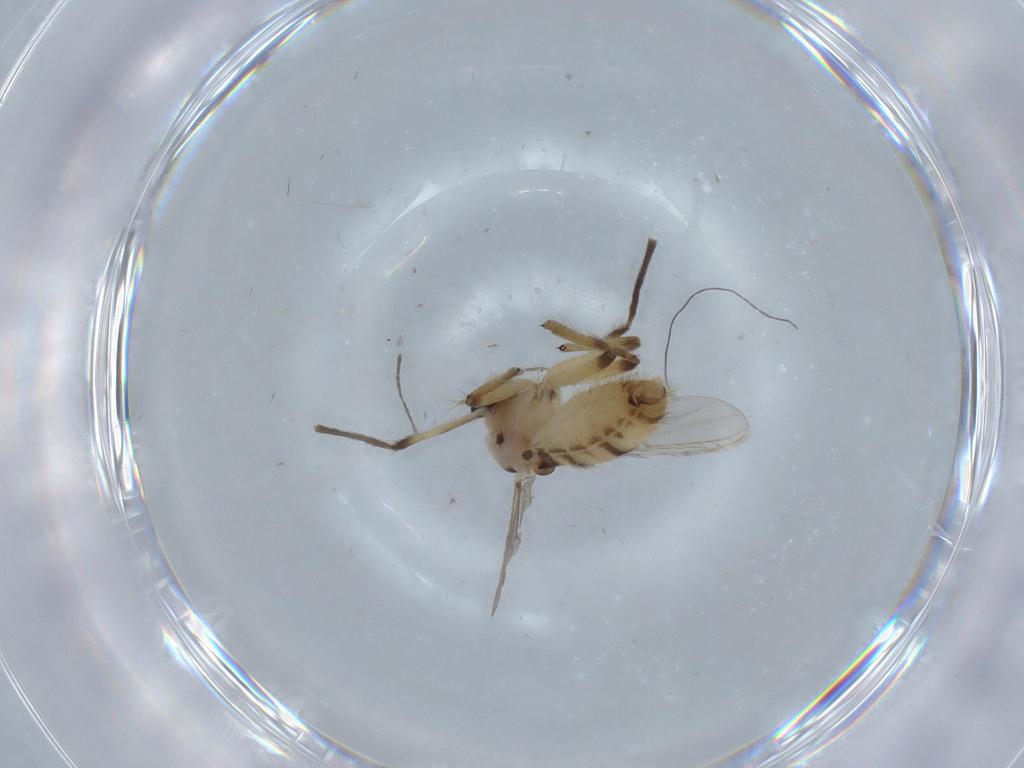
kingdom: Animalia
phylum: Arthropoda
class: Insecta
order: Diptera
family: Chironomidae
